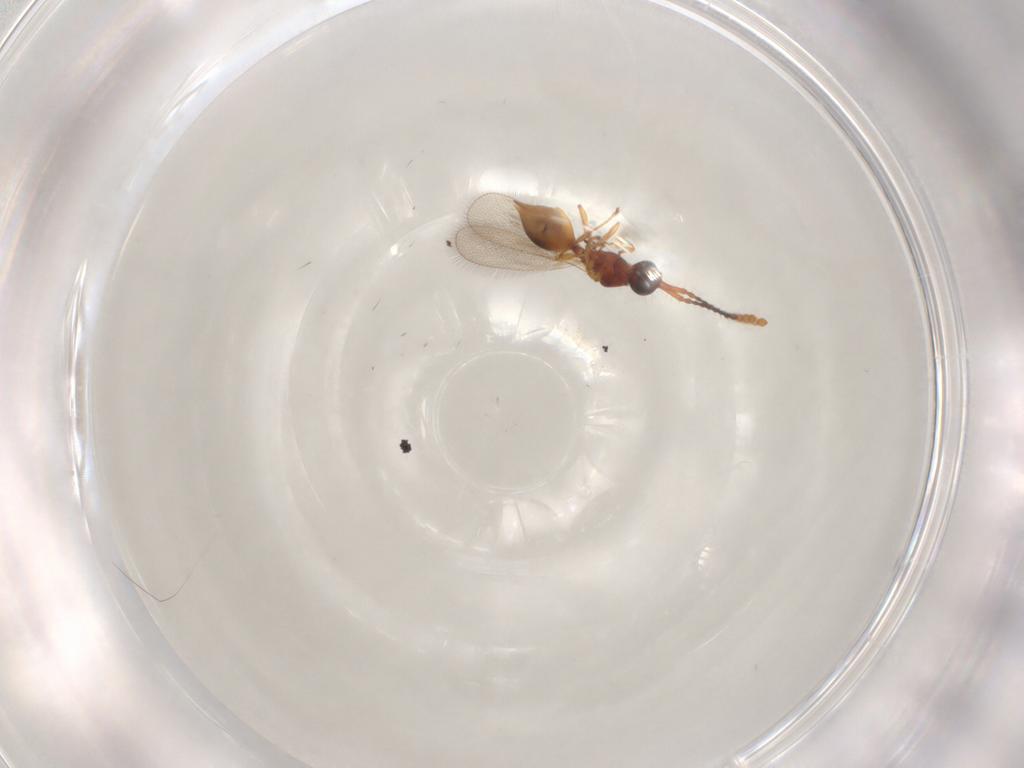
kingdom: Animalia
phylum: Arthropoda
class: Insecta
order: Hymenoptera
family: Diapriidae
